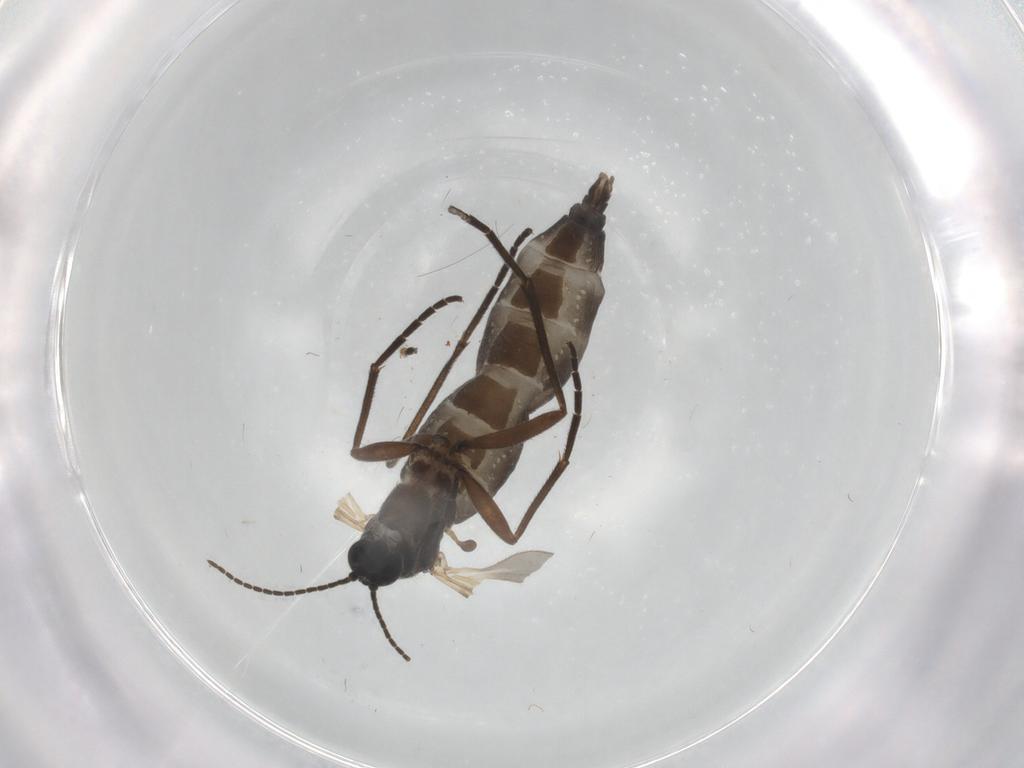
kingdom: Animalia
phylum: Arthropoda
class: Insecta
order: Diptera
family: Sciaridae
